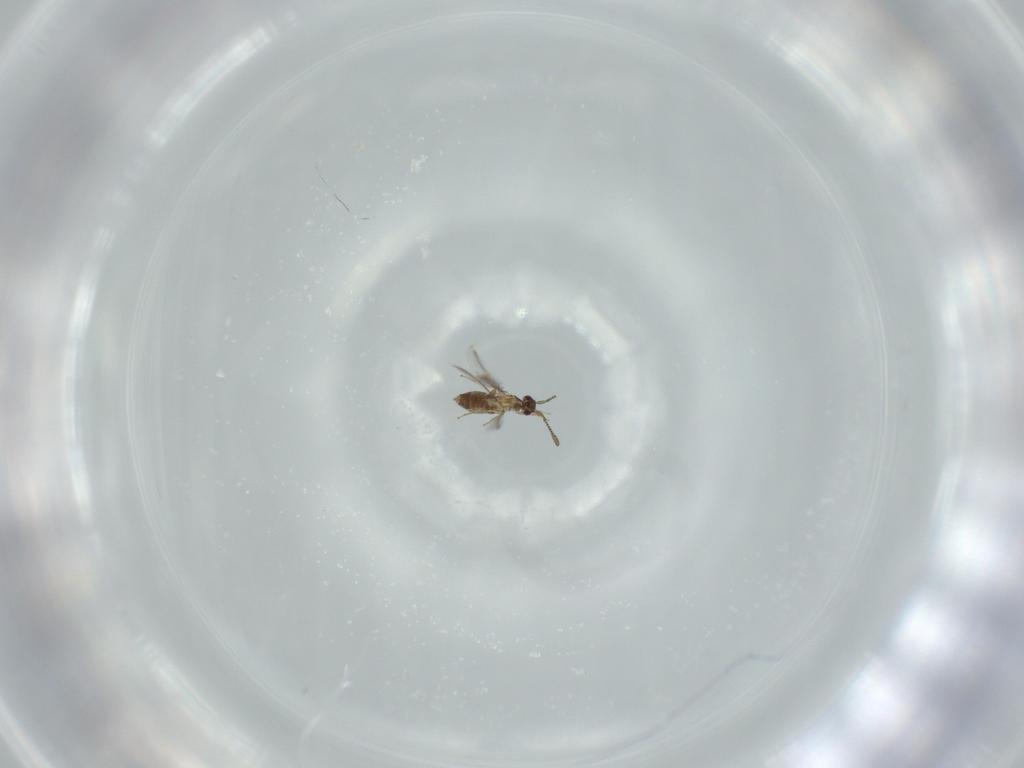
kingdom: Animalia
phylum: Arthropoda
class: Insecta
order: Hymenoptera
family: Mymaridae
